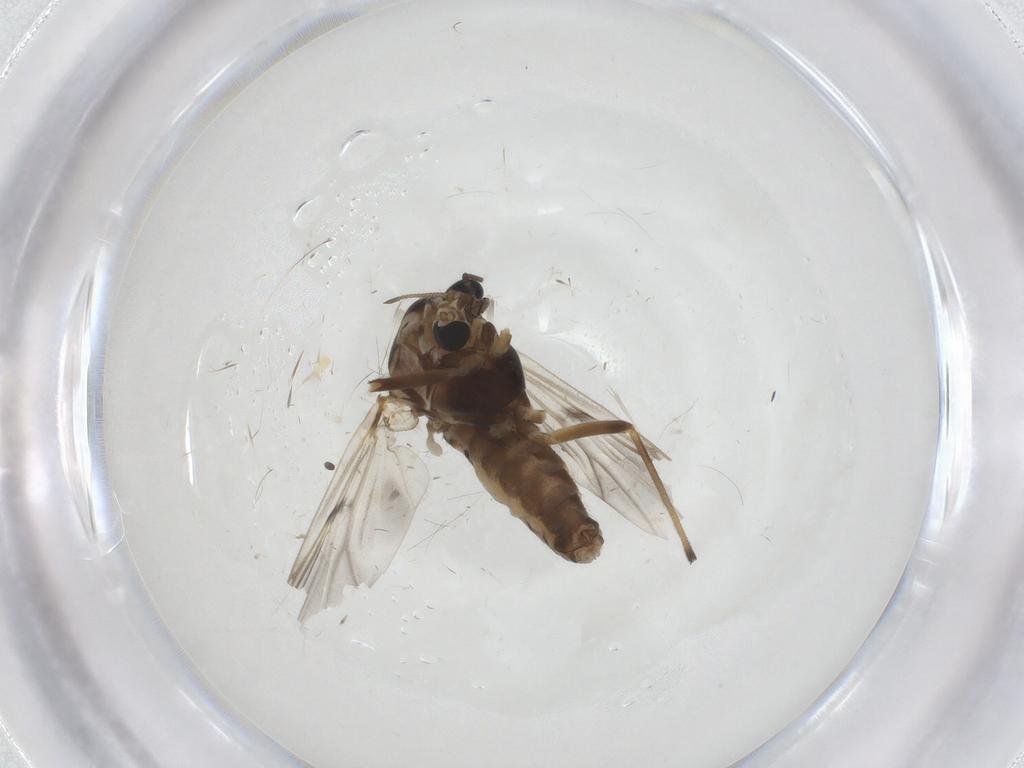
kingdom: Animalia
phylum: Arthropoda
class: Insecta
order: Diptera
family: Chironomidae
